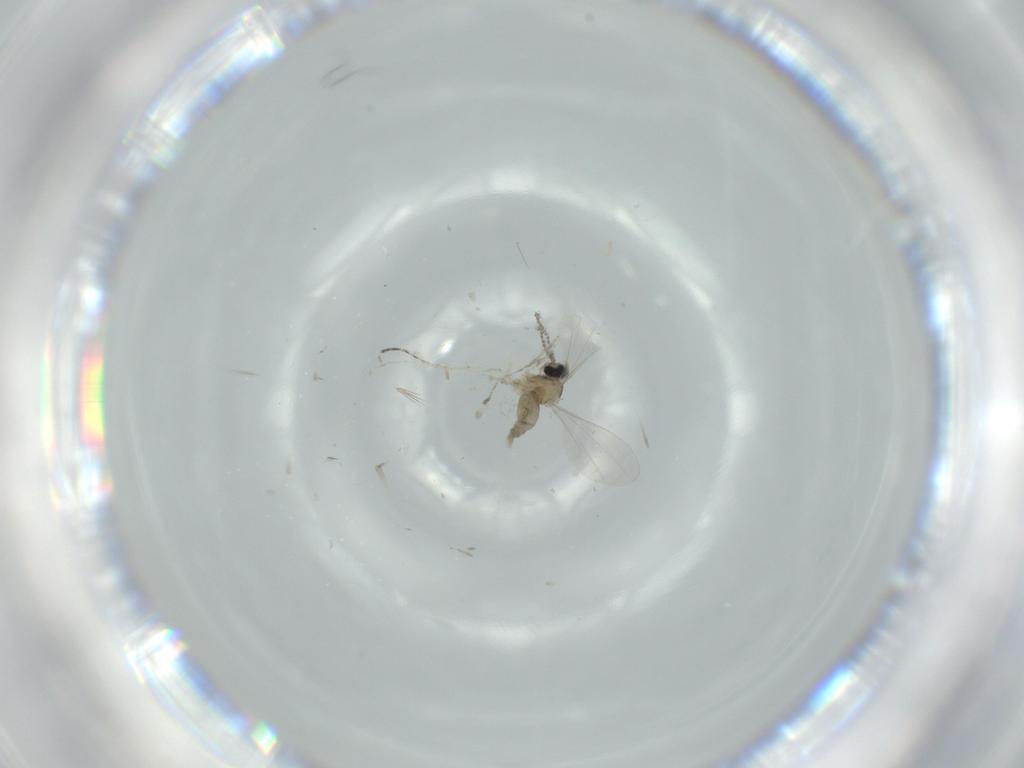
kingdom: Animalia
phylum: Arthropoda
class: Insecta
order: Diptera
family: Cecidomyiidae
